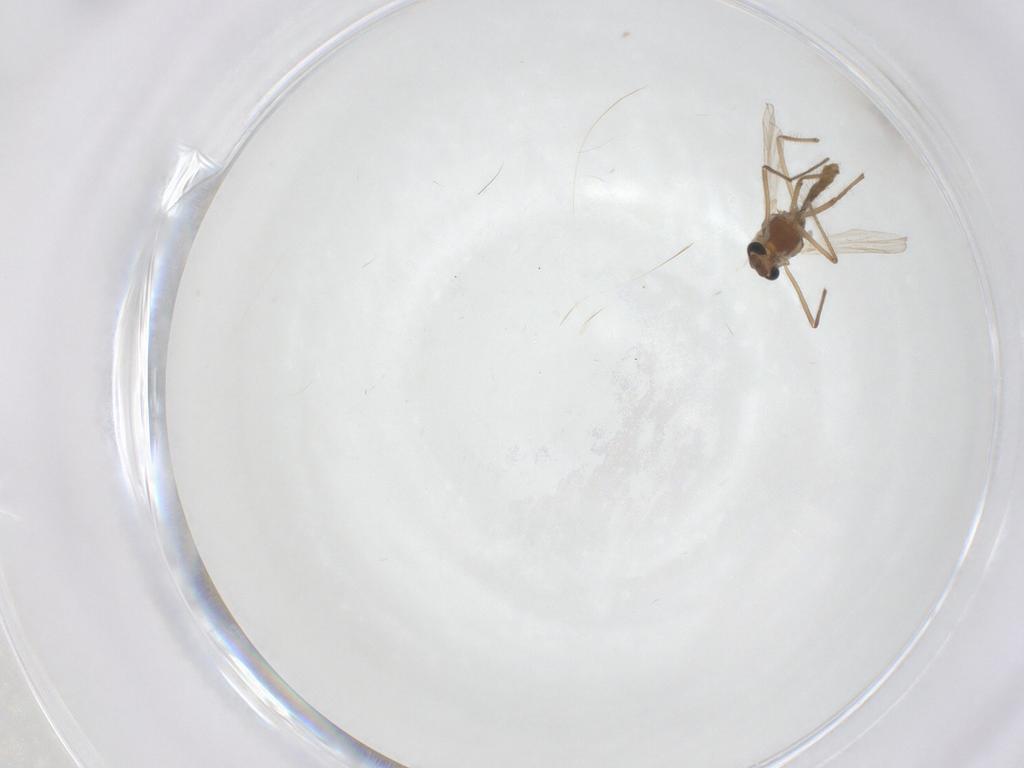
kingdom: Animalia
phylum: Arthropoda
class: Insecta
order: Diptera
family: Chironomidae
